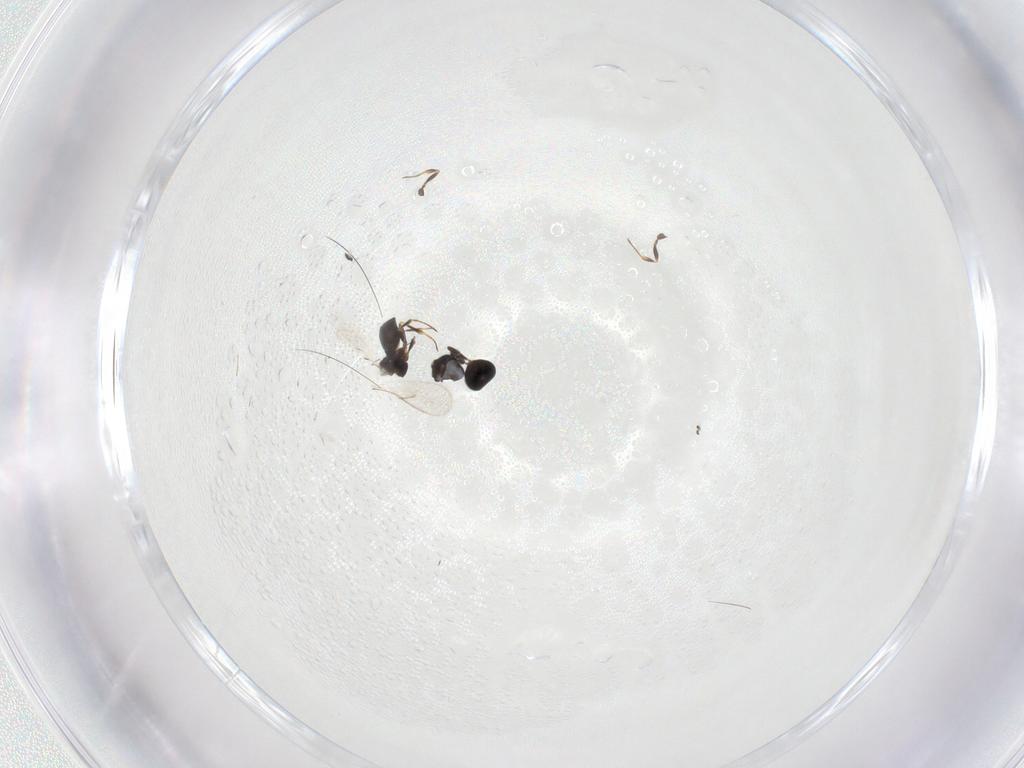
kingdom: Animalia
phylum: Arthropoda
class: Insecta
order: Hymenoptera
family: Scelionidae
